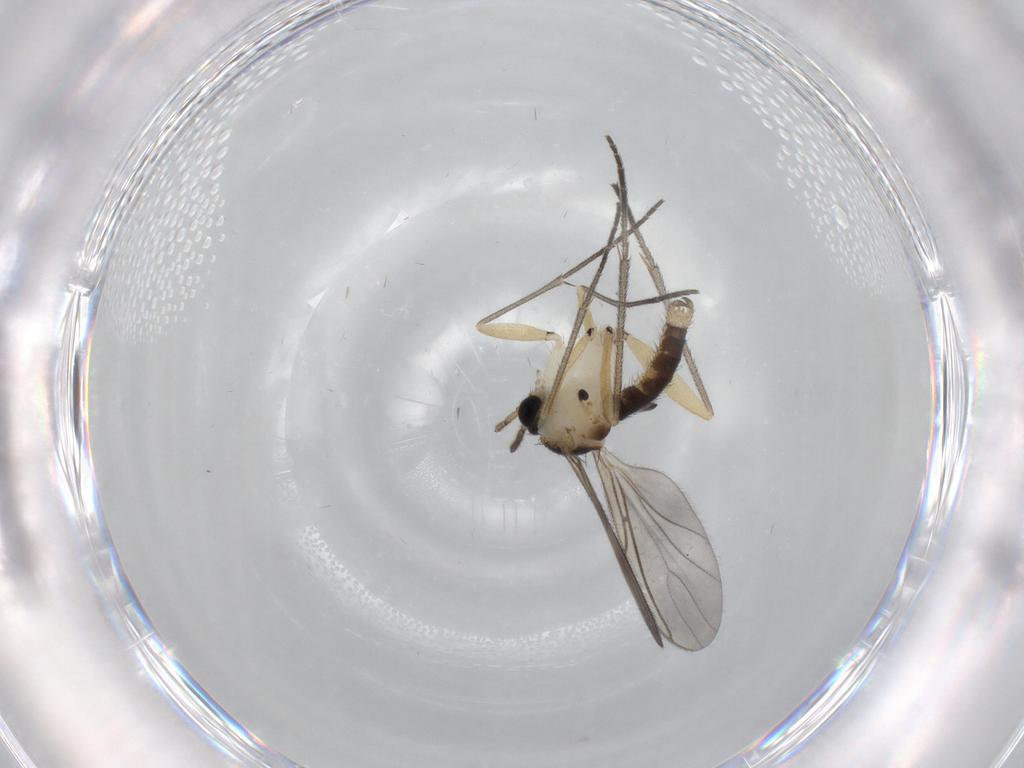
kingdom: Animalia
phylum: Arthropoda
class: Insecta
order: Diptera
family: Sciaridae
